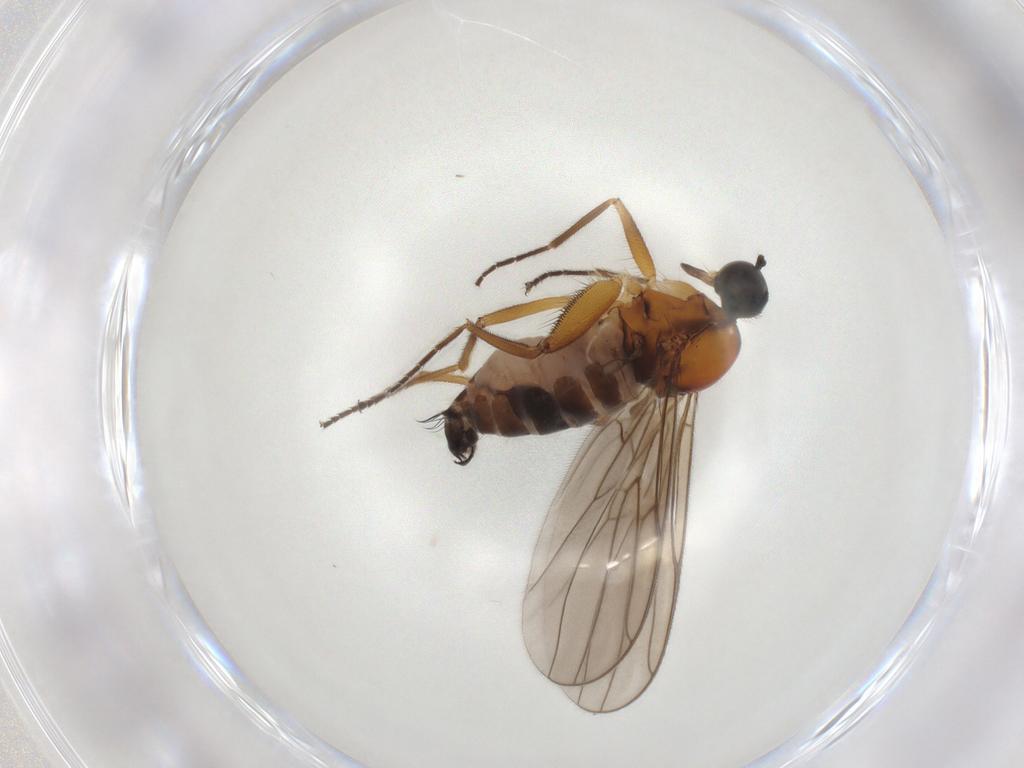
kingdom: Animalia
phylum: Arthropoda
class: Insecta
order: Diptera
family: Hybotidae
